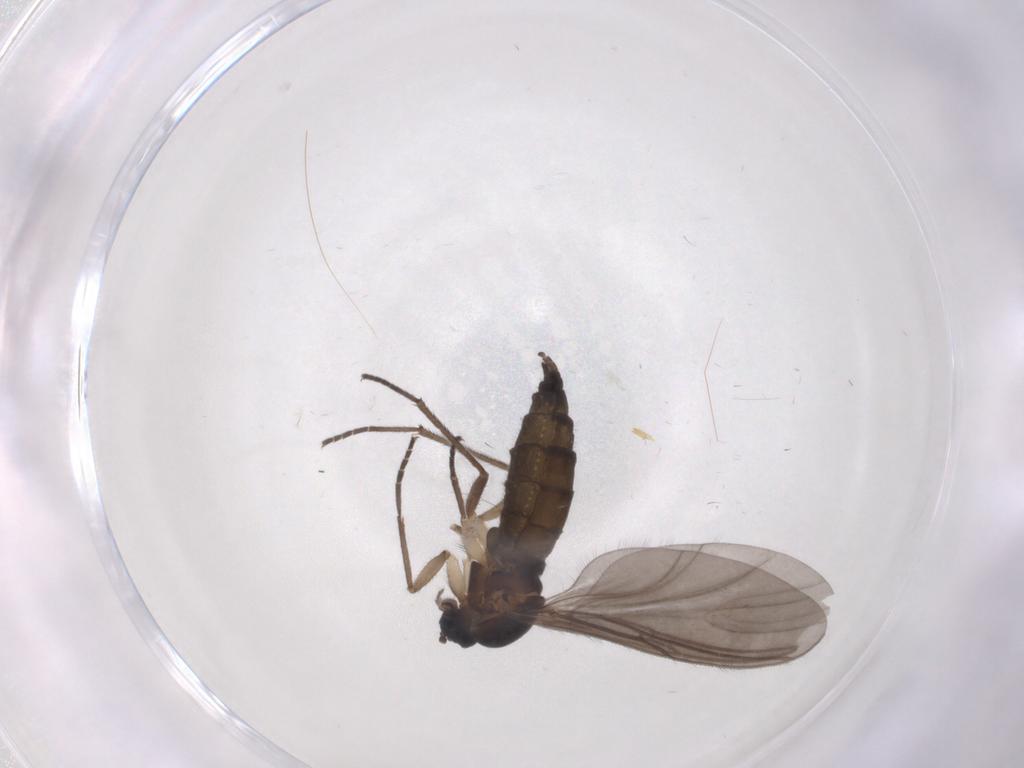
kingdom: Animalia
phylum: Arthropoda
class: Insecta
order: Diptera
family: Sciaridae
